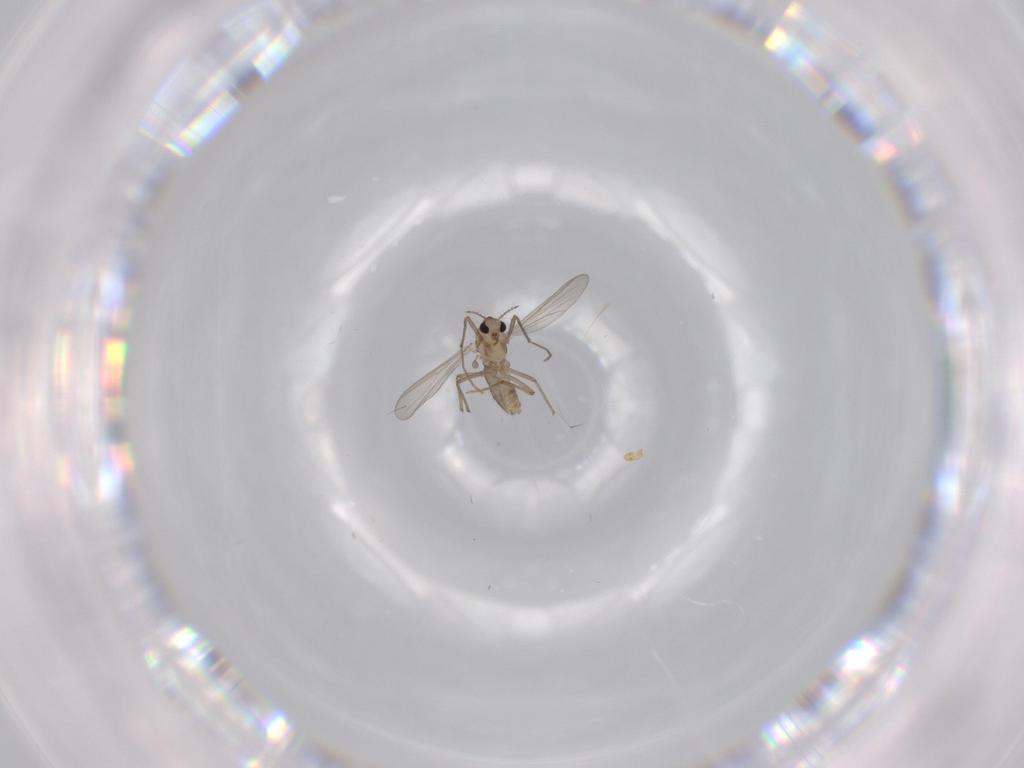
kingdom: Animalia
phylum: Arthropoda
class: Insecta
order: Diptera
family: Chironomidae
